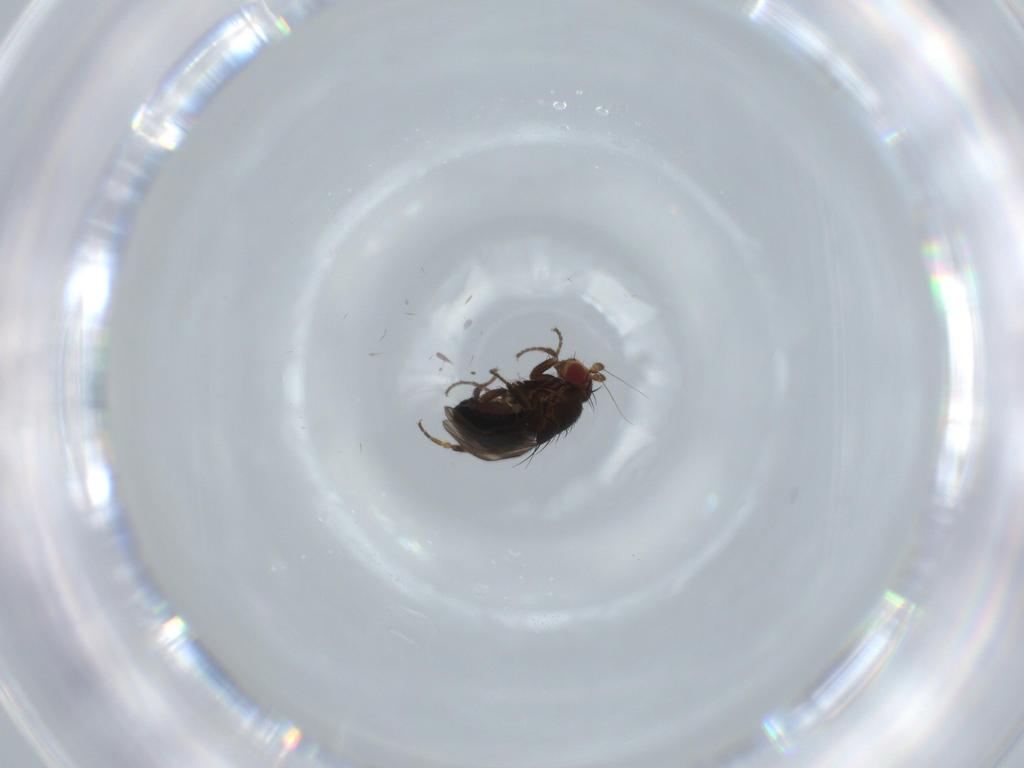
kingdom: Animalia
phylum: Arthropoda
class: Insecta
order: Diptera
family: Sphaeroceridae
